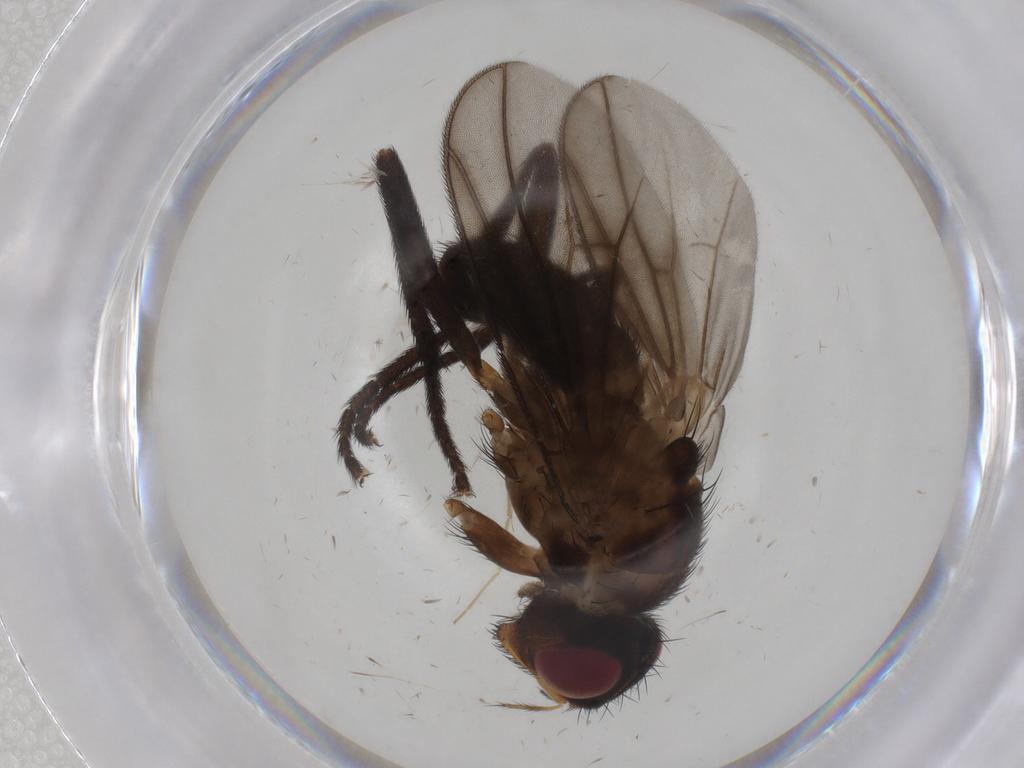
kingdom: Animalia
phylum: Arthropoda
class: Insecta
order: Diptera
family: Calliphoridae
